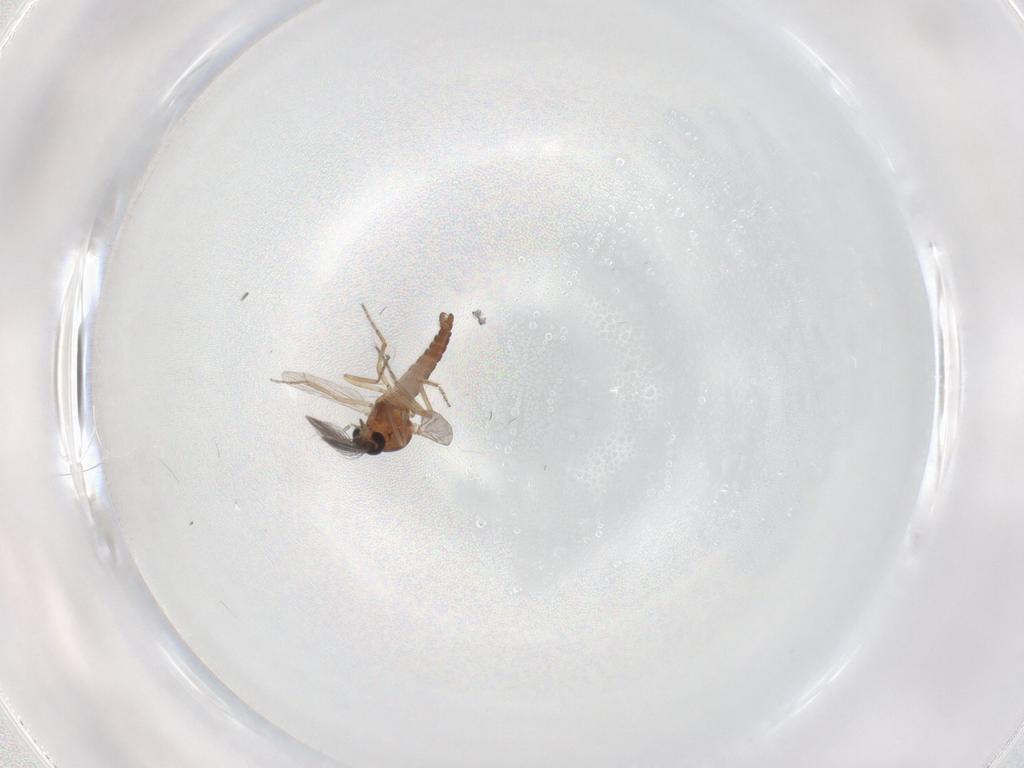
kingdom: Animalia
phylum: Arthropoda
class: Insecta
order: Diptera
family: Ceratopogonidae
